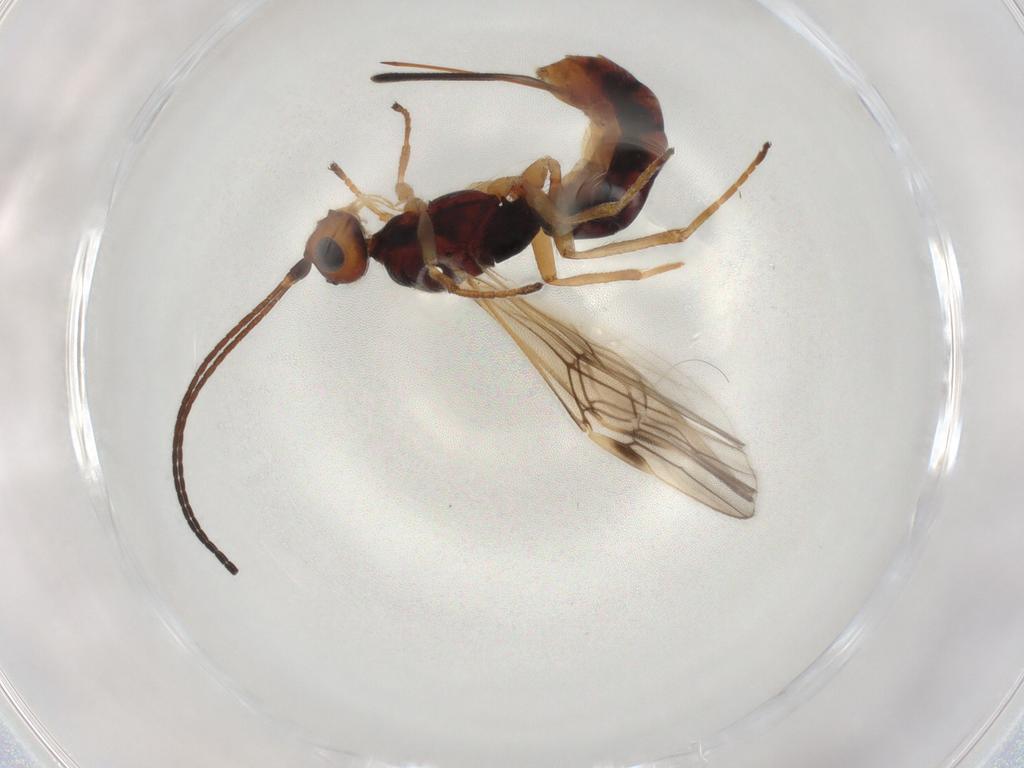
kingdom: Animalia
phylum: Arthropoda
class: Insecta
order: Hymenoptera
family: Braconidae
